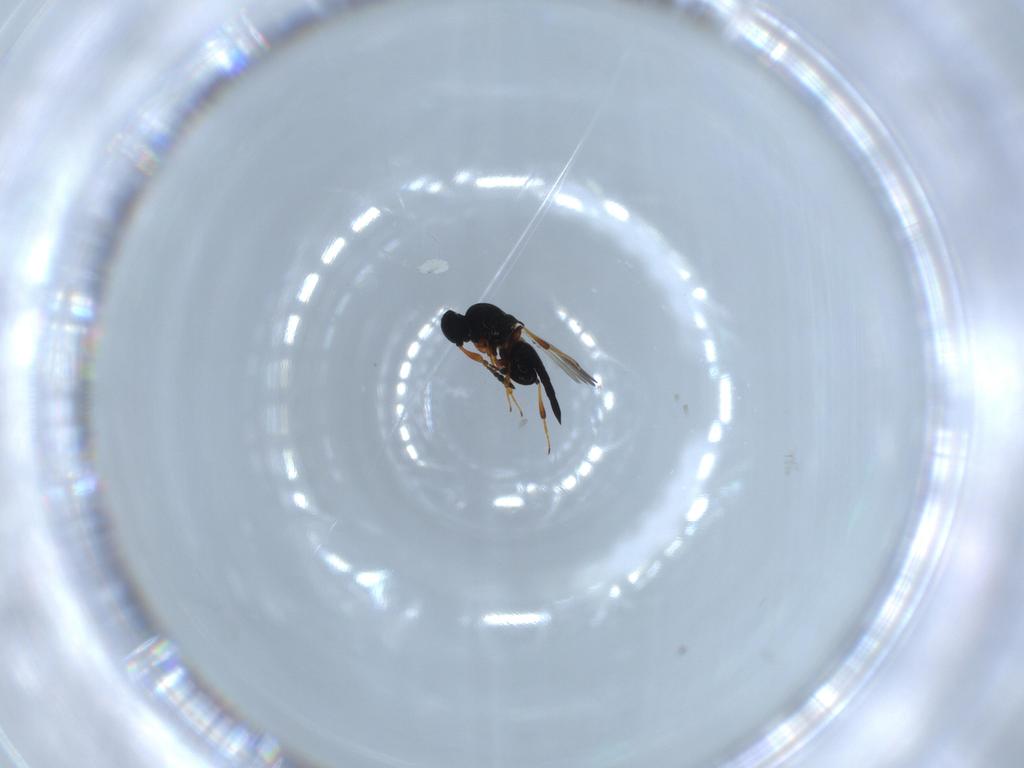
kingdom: Animalia
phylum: Arthropoda
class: Insecta
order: Hymenoptera
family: Platygastridae
